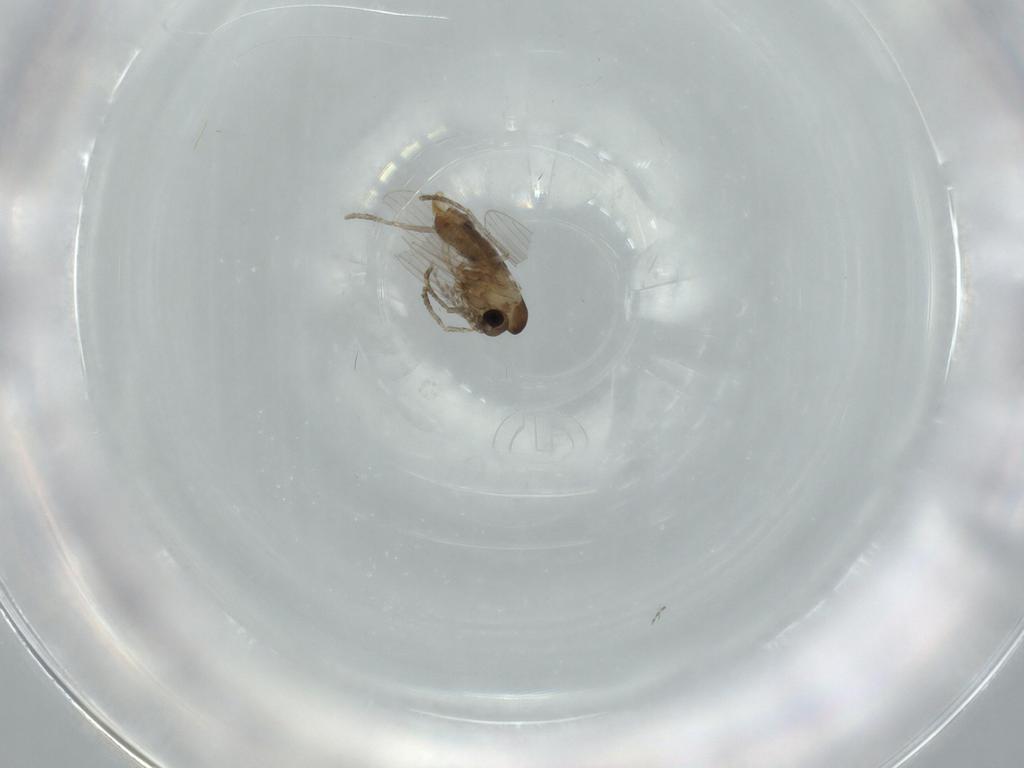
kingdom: Animalia
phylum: Arthropoda
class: Insecta
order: Diptera
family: Psychodidae
